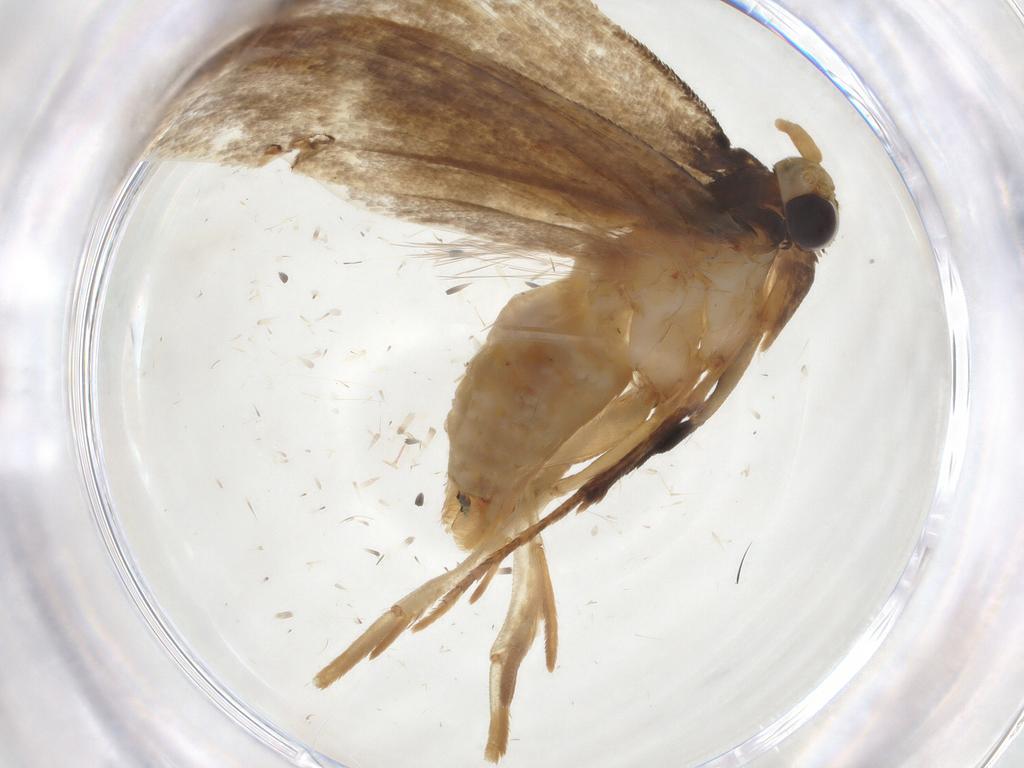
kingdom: Animalia
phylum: Arthropoda
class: Insecta
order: Lepidoptera
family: Erebidae
